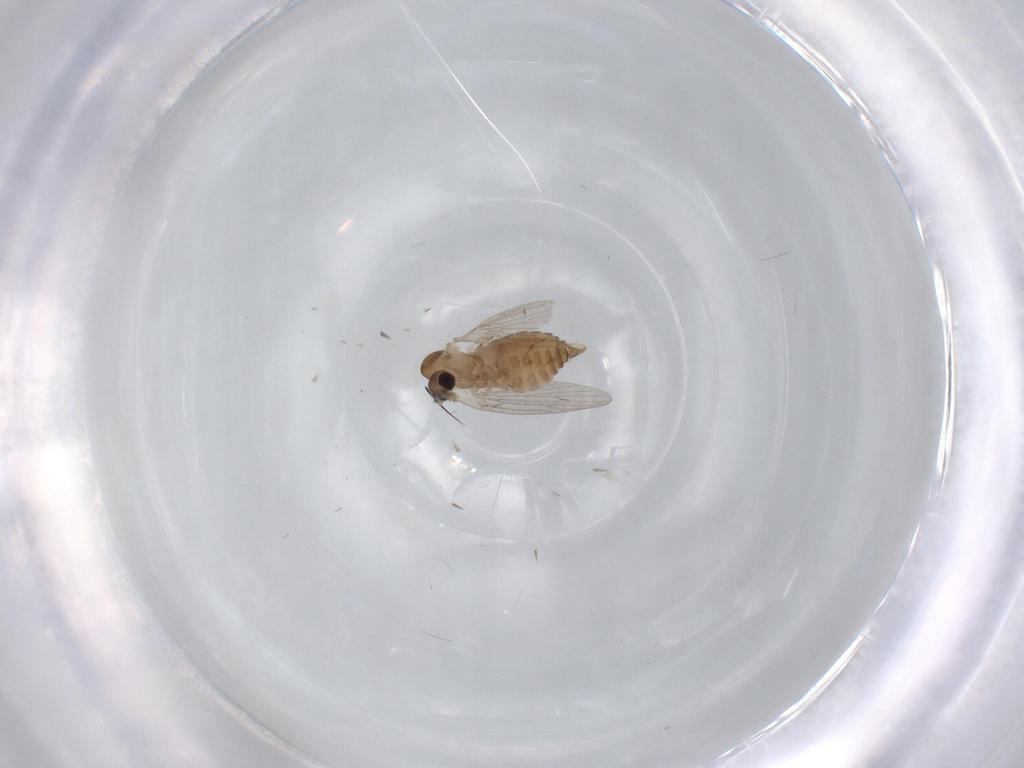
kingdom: Animalia
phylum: Arthropoda
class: Insecta
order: Diptera
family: Psychodidae
